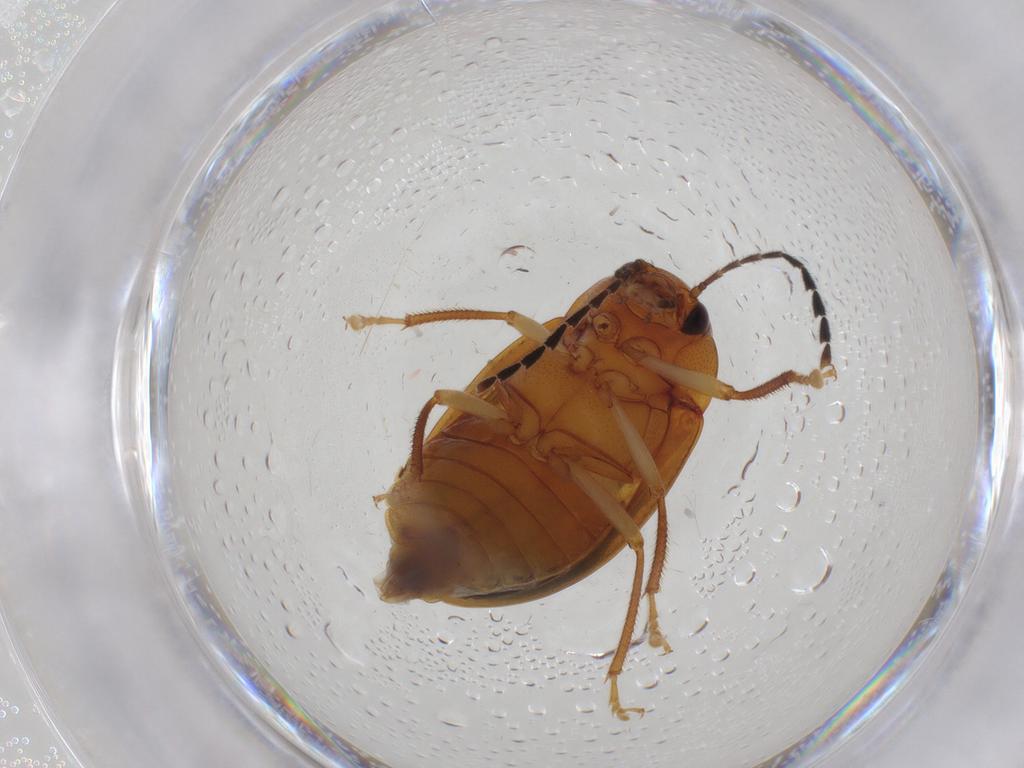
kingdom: Animalia
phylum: Arthropoda
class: Insecta
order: Coleoptera
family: Ptilodactylidae
